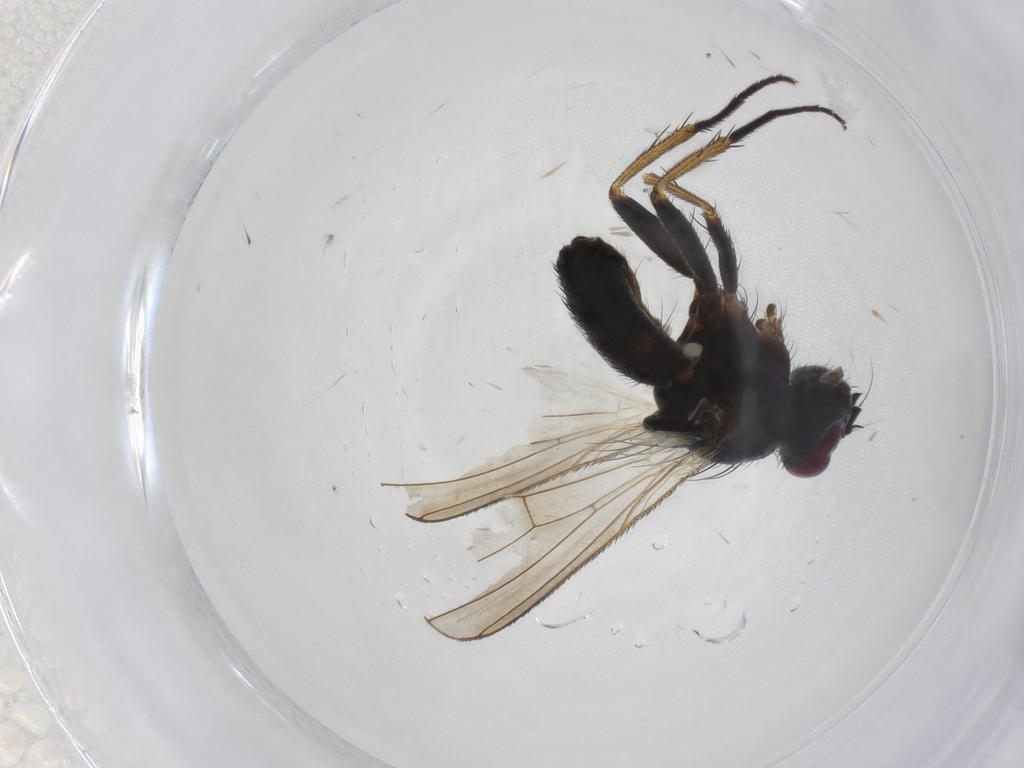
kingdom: Animalia
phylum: Arthropoda
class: Insecta
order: Diptera
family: Muscidae
